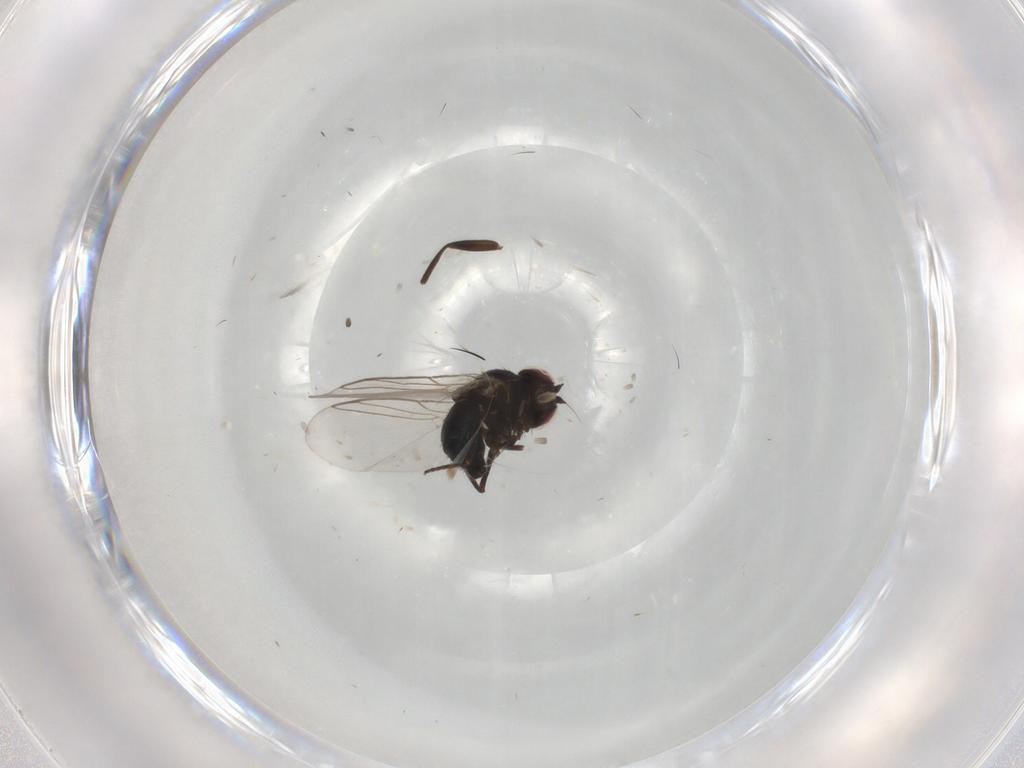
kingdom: Animalia
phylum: Arthropoda
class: Insecta
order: Diptera
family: Agromyzidae
